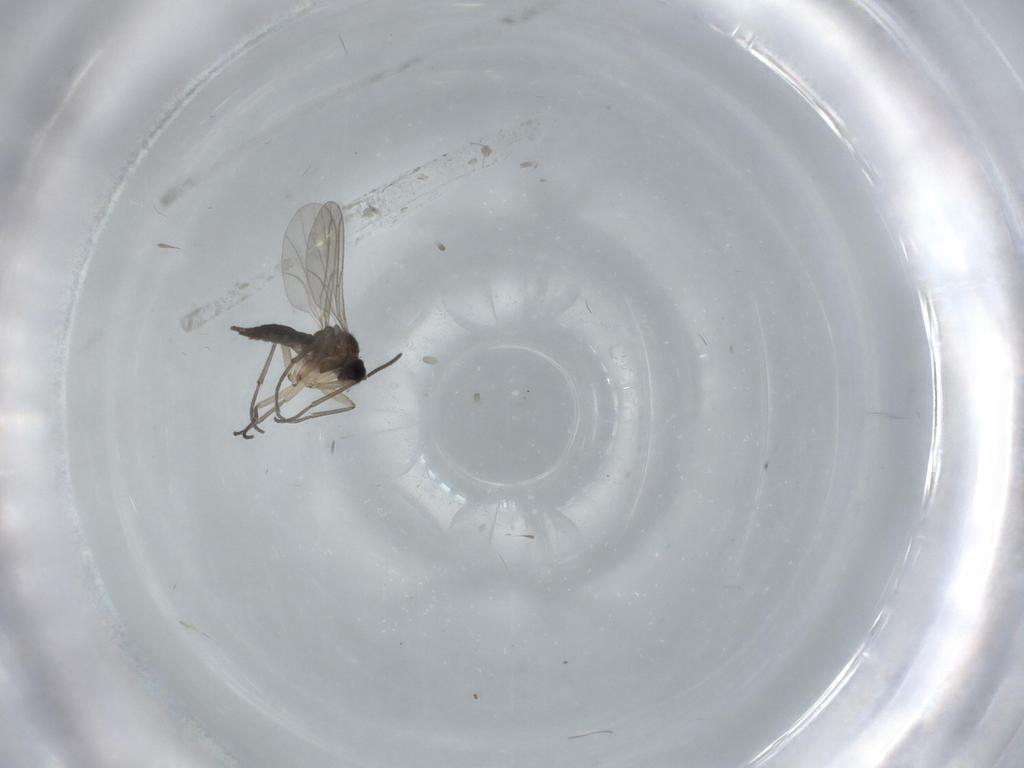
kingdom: Animalia
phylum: Arthropoda
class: Insecta
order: Diptera
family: Sciaridae
